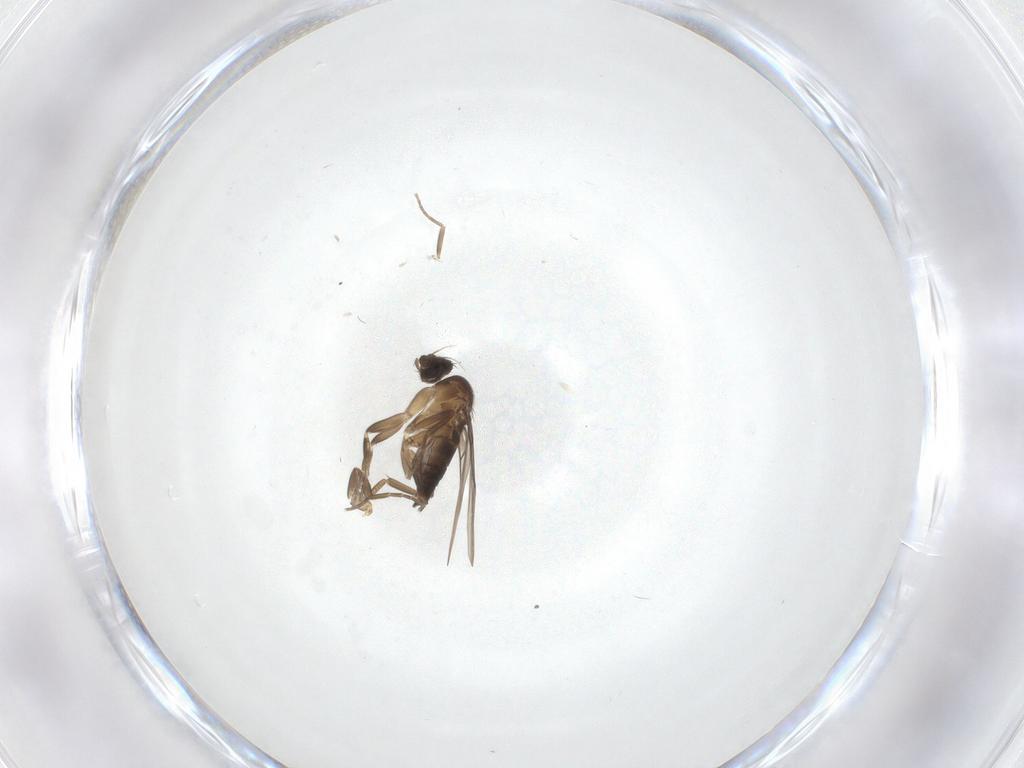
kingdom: Animalia
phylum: Arthropoda
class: Insecta
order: Diptera
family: Phoridae
